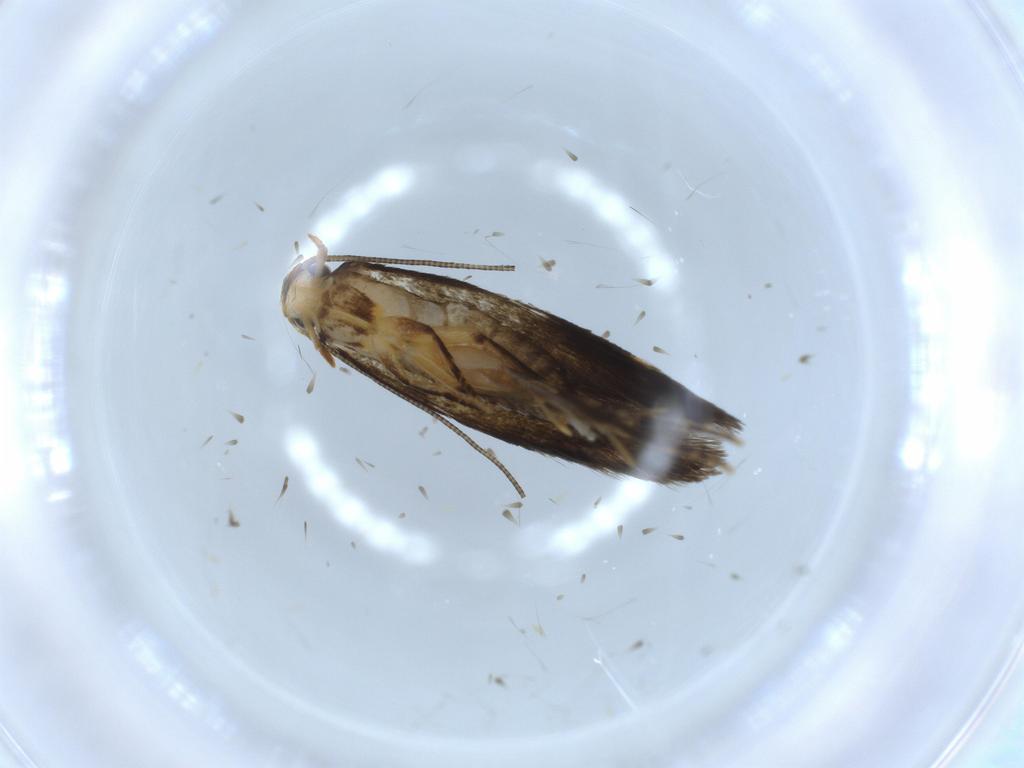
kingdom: Animalia
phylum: Arthropoda
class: Insecta
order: Lepidoptera
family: Tineidae
